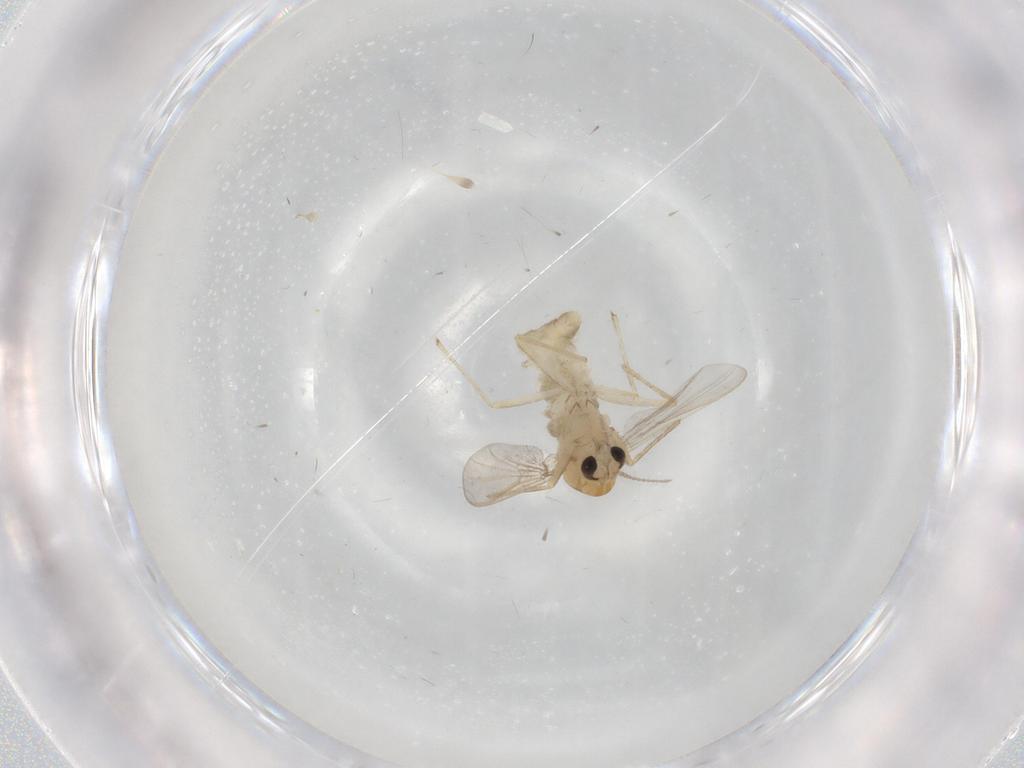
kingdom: Animalia
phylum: Arthropoda
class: Insecta
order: Diptera
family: Chironomidae
